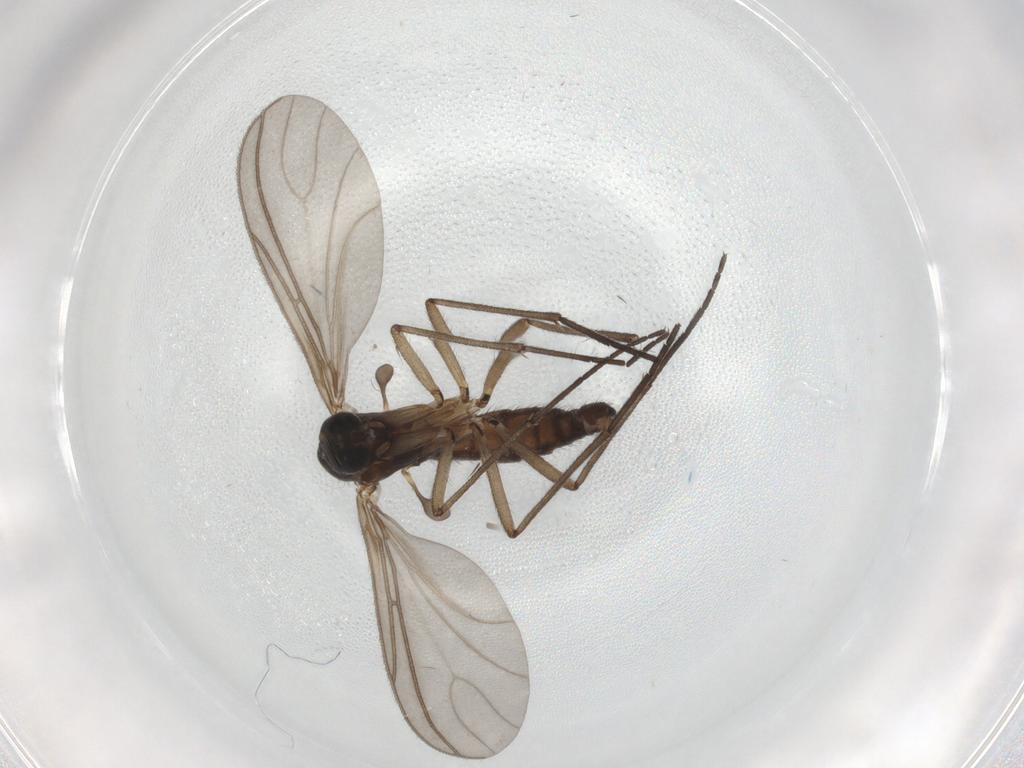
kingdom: Animalia
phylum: Arthropoda
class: Insecta
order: Diptera
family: Cecidomyiidae
